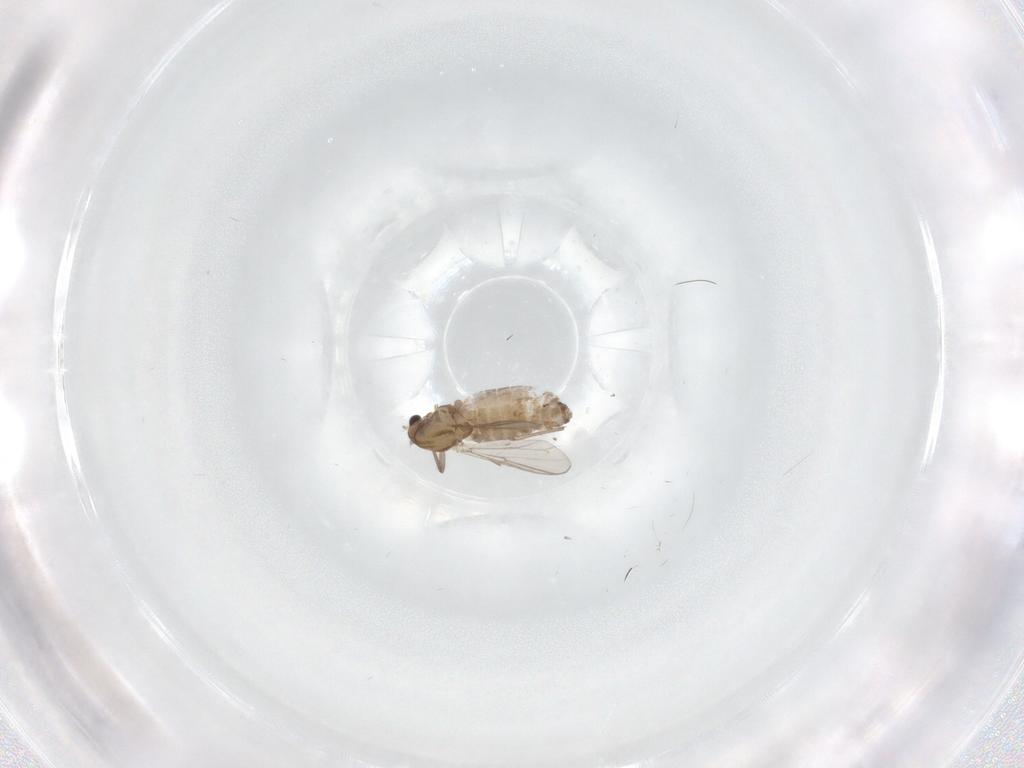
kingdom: Animalia
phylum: Arthropoda
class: Insecta
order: Diptera
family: Chironomidae
